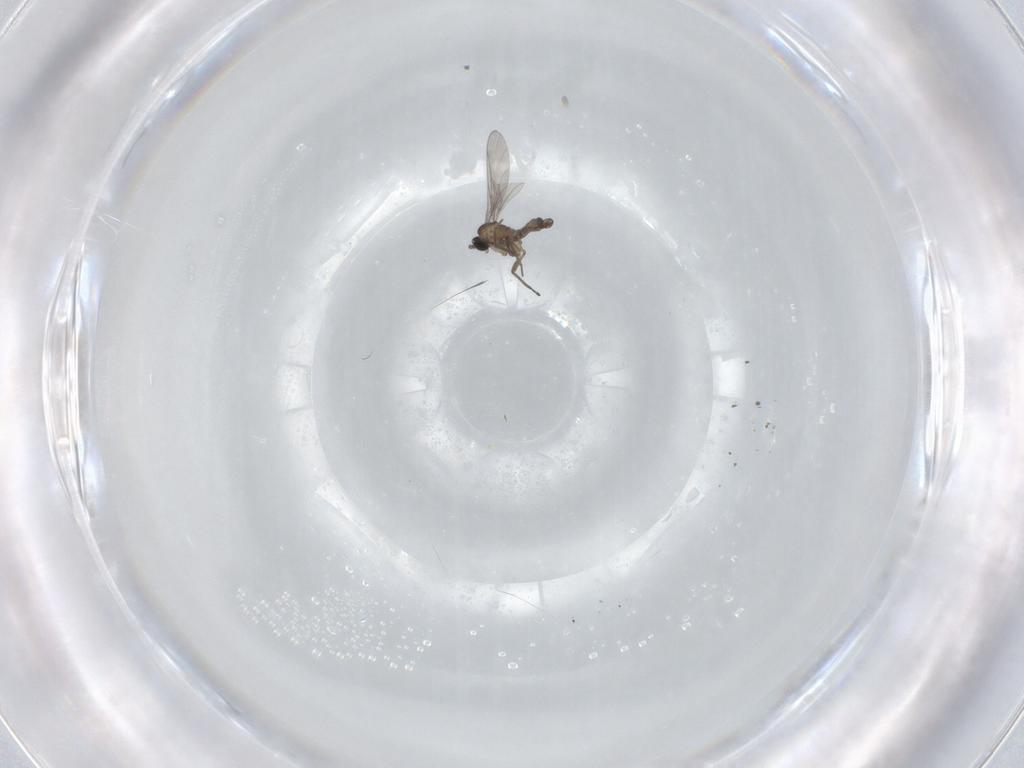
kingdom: Animalia
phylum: Arthropoda
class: Insecta
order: Diptera
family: Sciaridae
